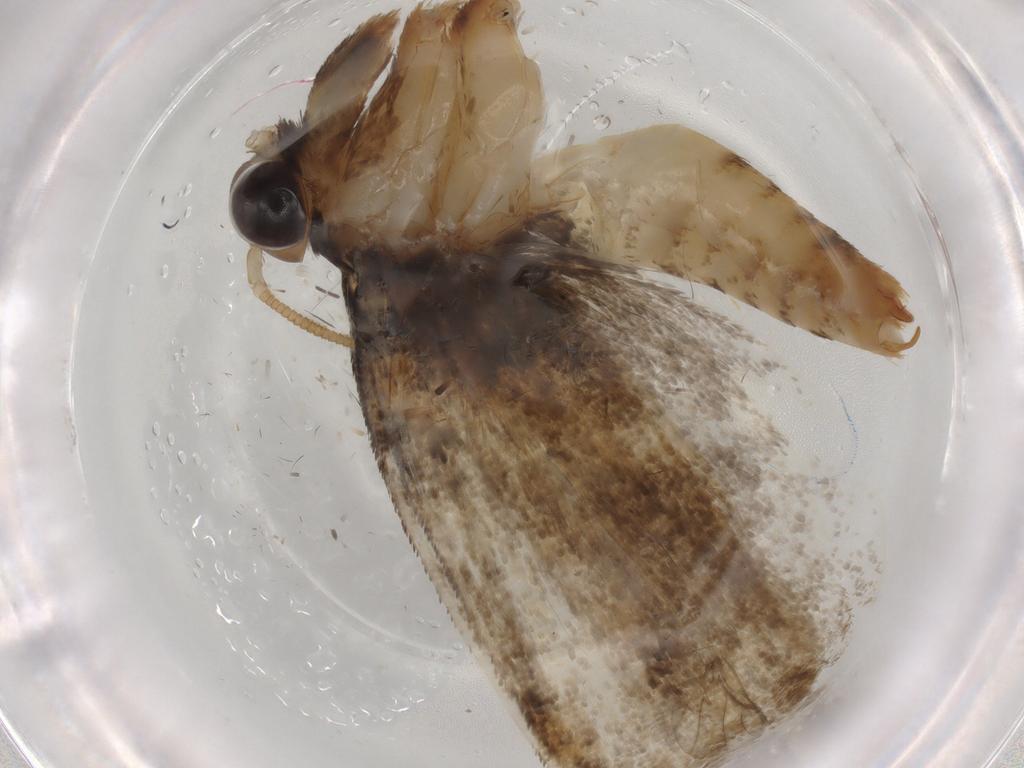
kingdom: Animalia
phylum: Arthropoda
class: Insecta
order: Lepidoptera
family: Tineidae
